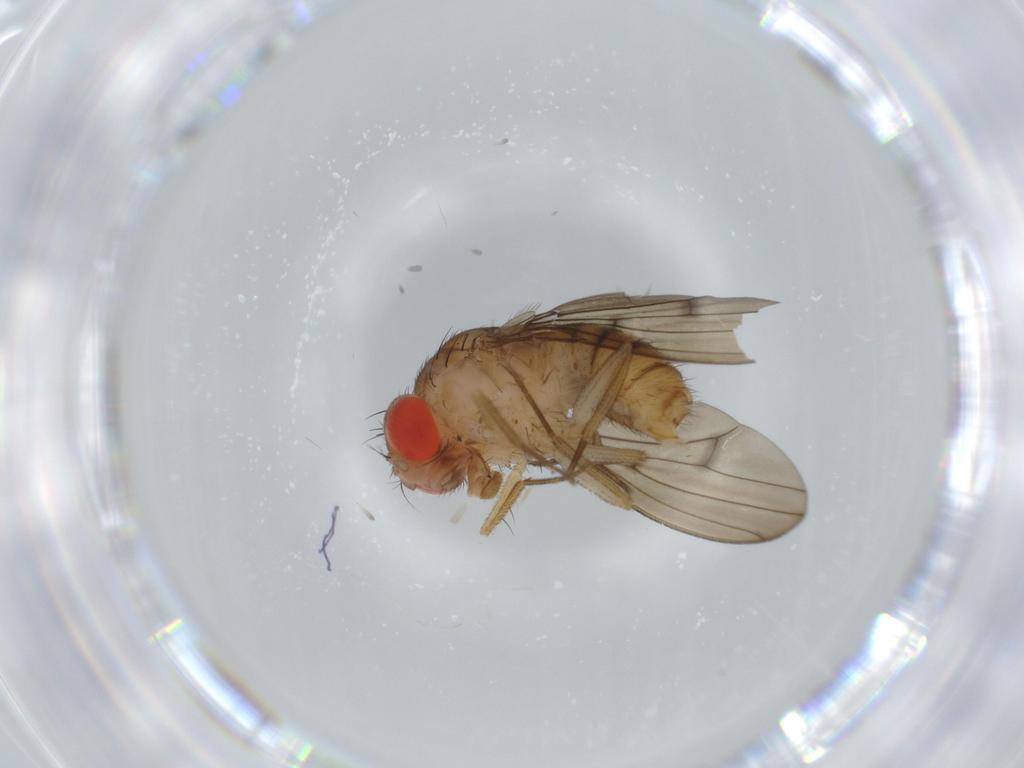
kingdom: Animalia
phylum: Arthropoda
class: Insecta
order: Diptera
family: Drosophilidae
